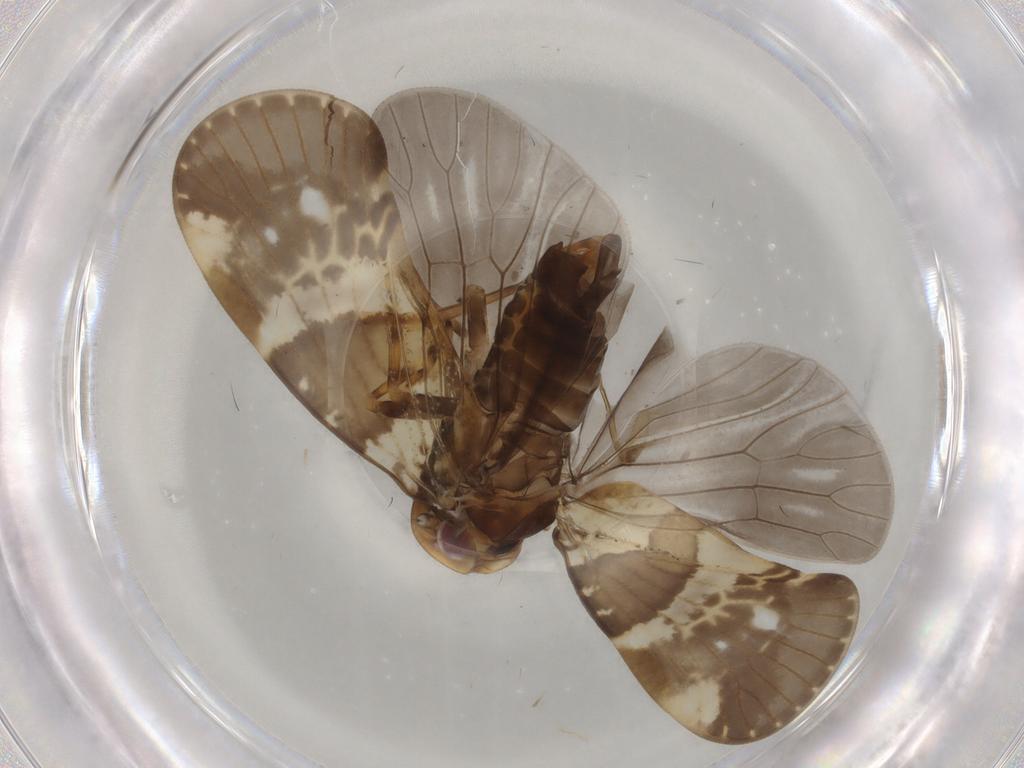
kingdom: Animalia
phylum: Arthropoda
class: Insecta
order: Hemiptera
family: Cixiidae
